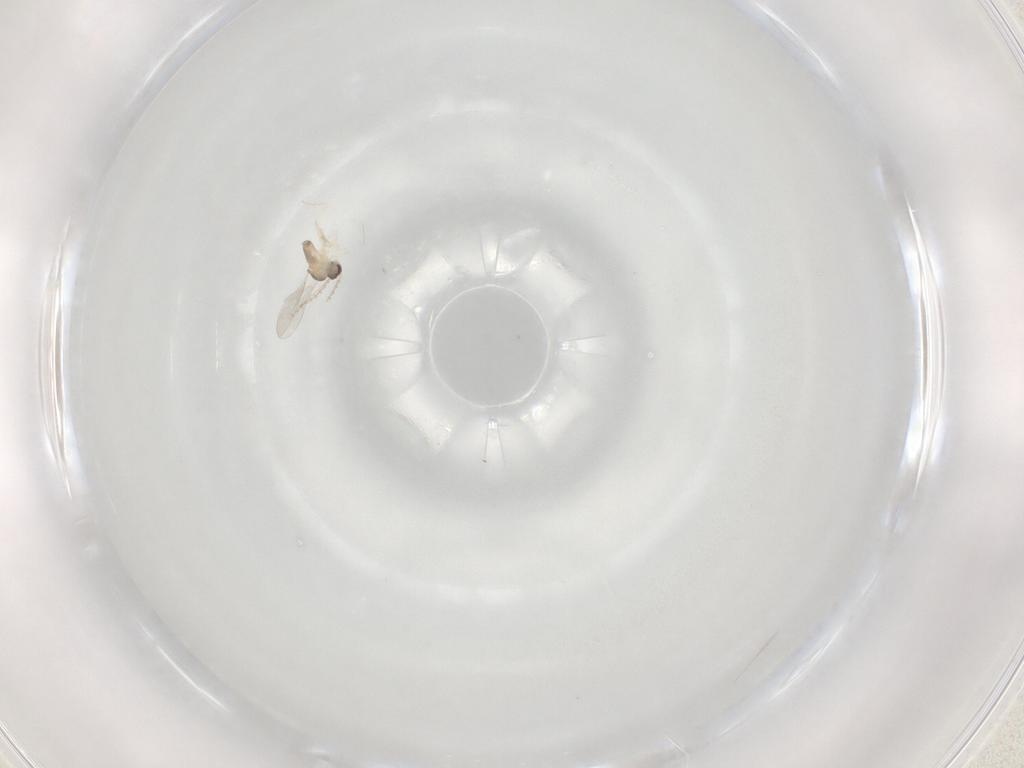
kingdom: Animalia
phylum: Arthropoda
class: Insecta
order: Diptera
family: Cecidomyiidae
